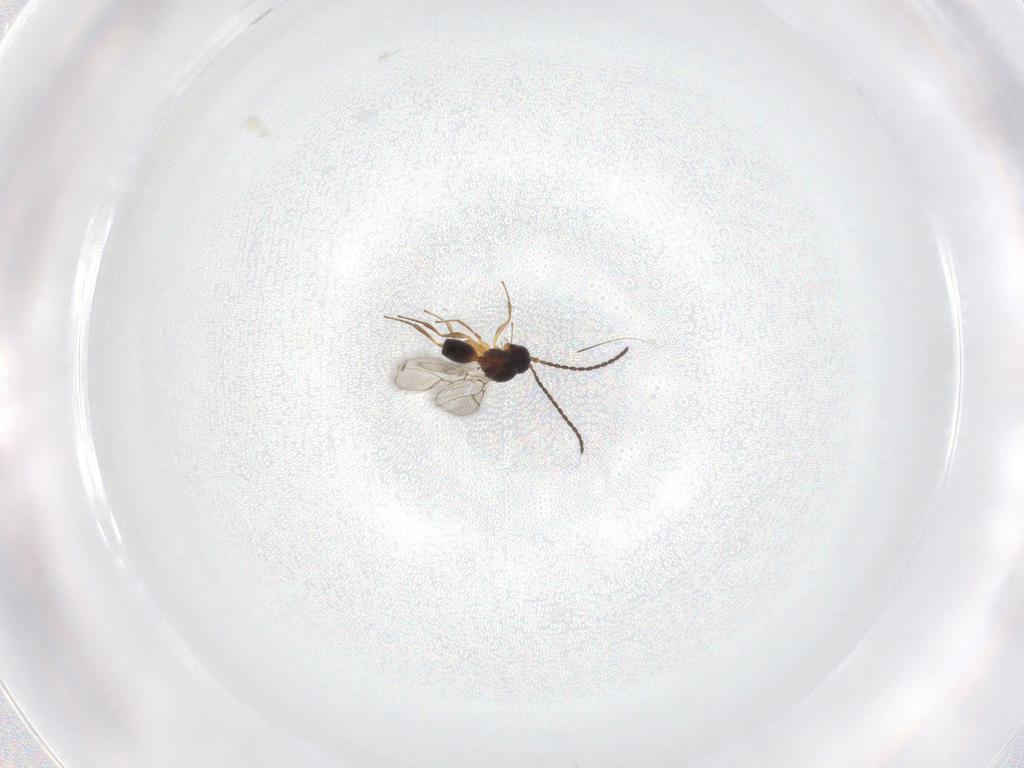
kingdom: Animalia
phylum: Arthropoda
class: Insecta
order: Hymenoptera
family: Figitidae
